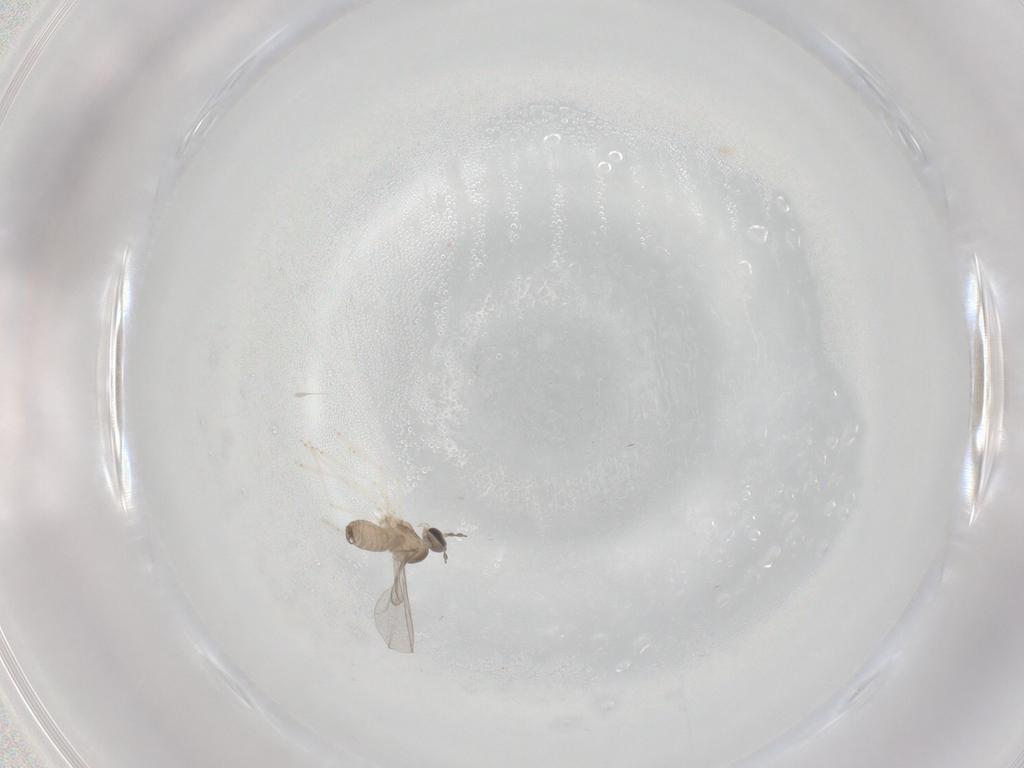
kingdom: Animalia
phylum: Arthropoda
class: Insecta
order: Diptera
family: Cecidomyiidae
